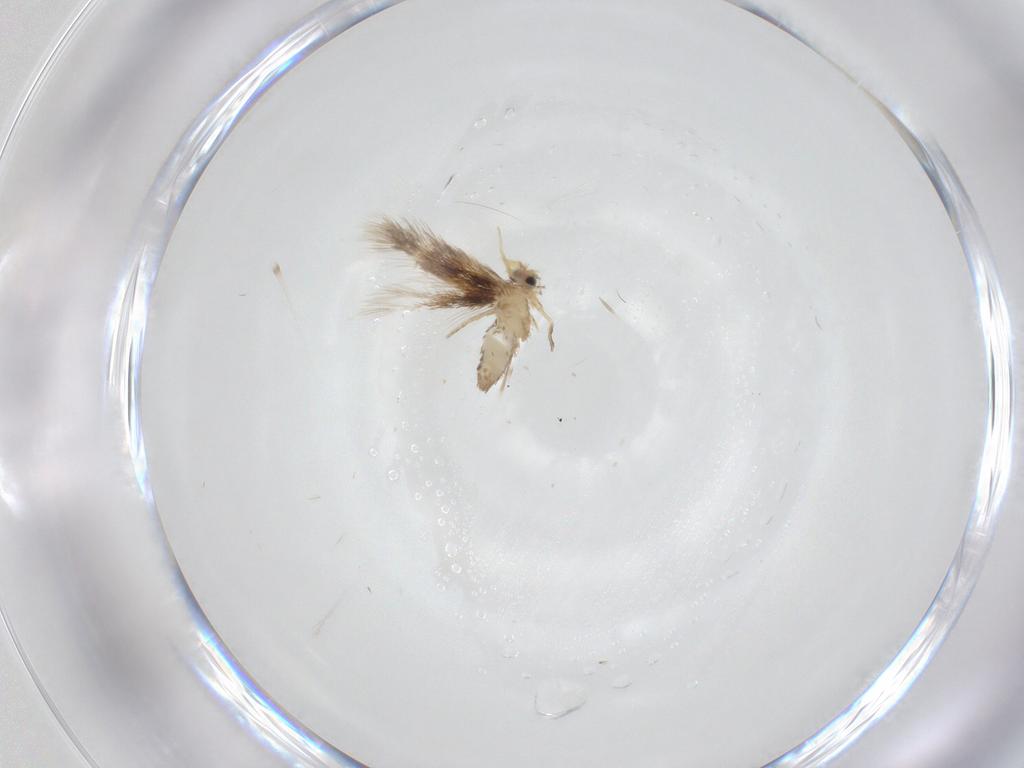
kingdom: Animalia
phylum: Arthropoda
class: Insecta
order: Lepidoptera
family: Nepticulidae
